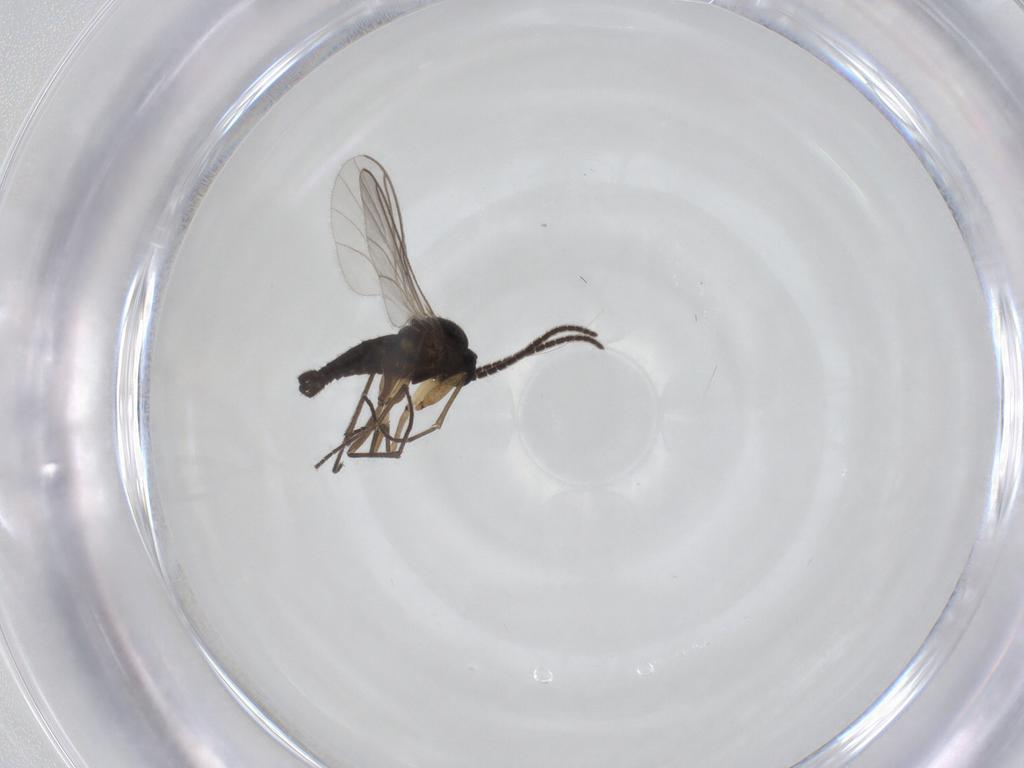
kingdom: Animalia
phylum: Arthropoda
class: Insecta
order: Diptera
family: Sciaridae
